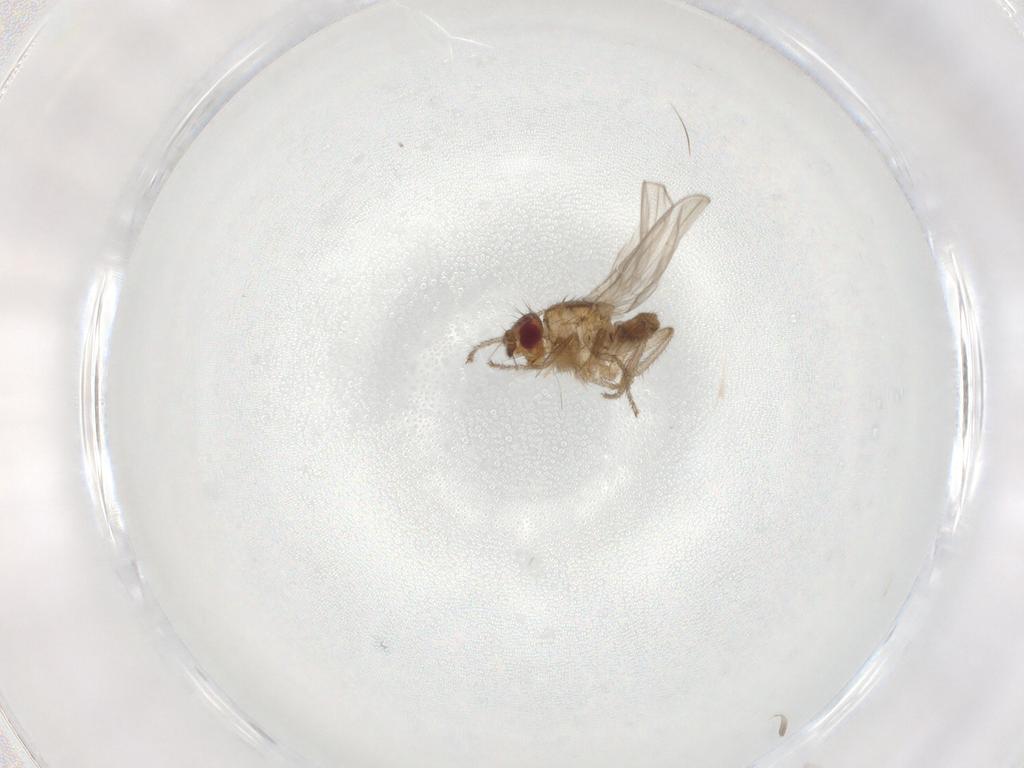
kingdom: Animalia
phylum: Arthropoda
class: Insecta
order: Diptera
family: Sphaeroceridae
